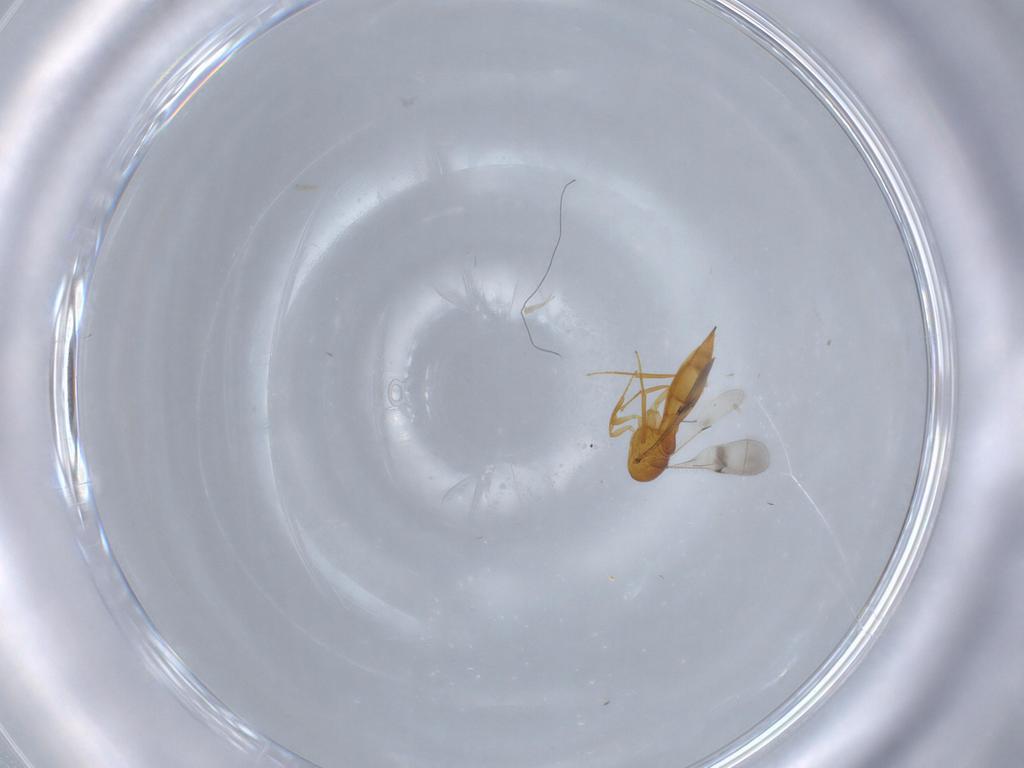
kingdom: Animalia
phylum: Arthropoda
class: Insecta
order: Hymenoptera
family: Scelionidae
